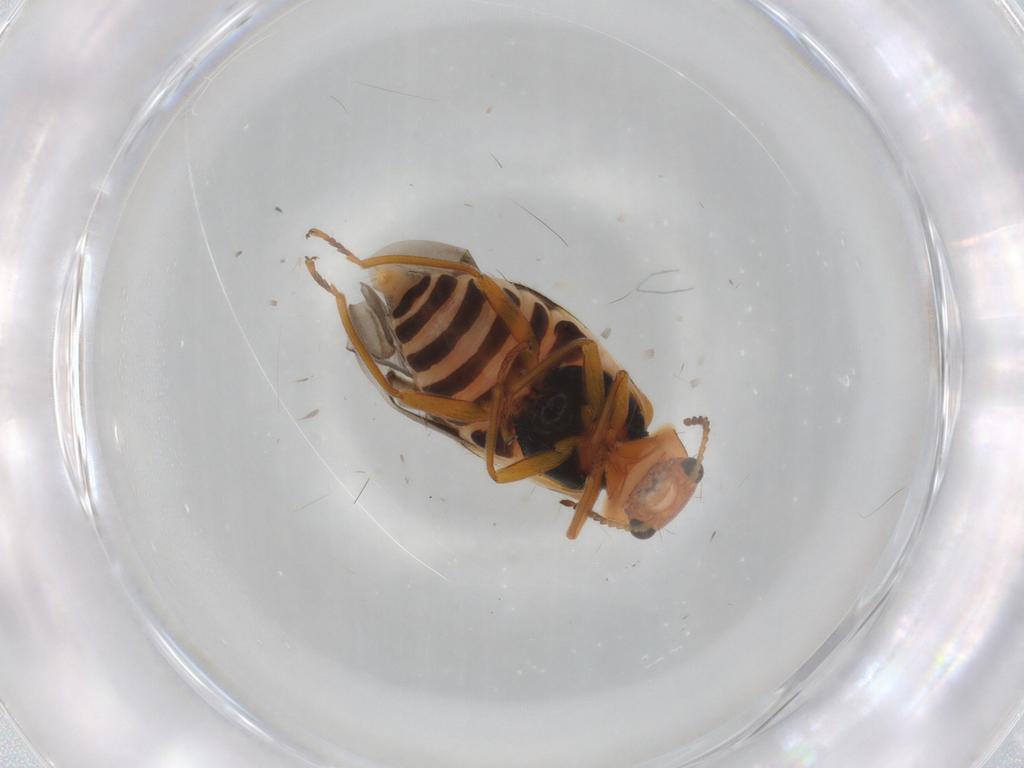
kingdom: Animalia
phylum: Arthropoda
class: Insecta
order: Coleoptera
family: Melyridae
